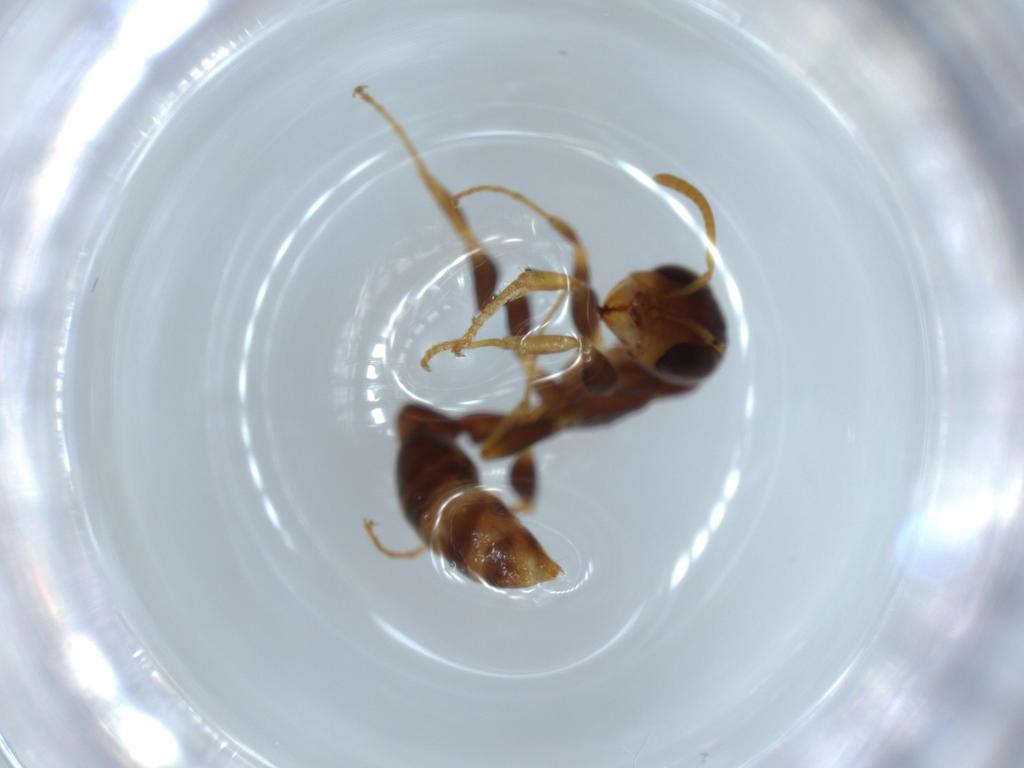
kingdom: Animalia
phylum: Arthropoda
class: Insecta
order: Hymenoptera
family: Formicidae
